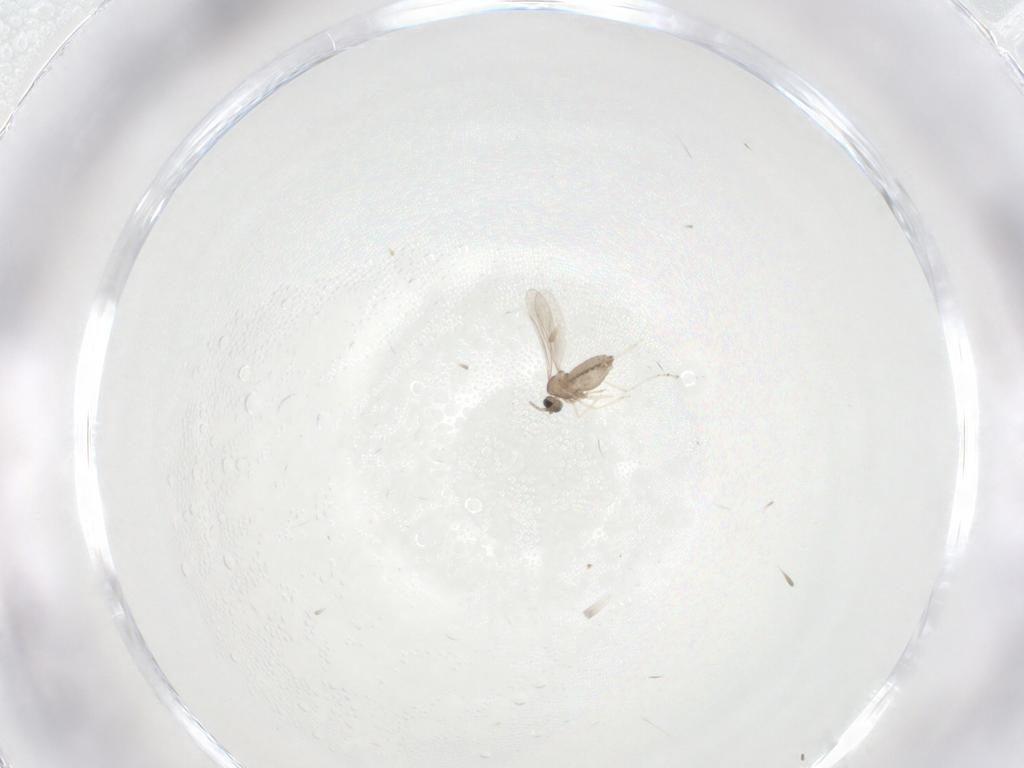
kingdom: Animalia
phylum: Arthropoda
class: Insecta
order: Diptera
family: Cecidomyiidae
